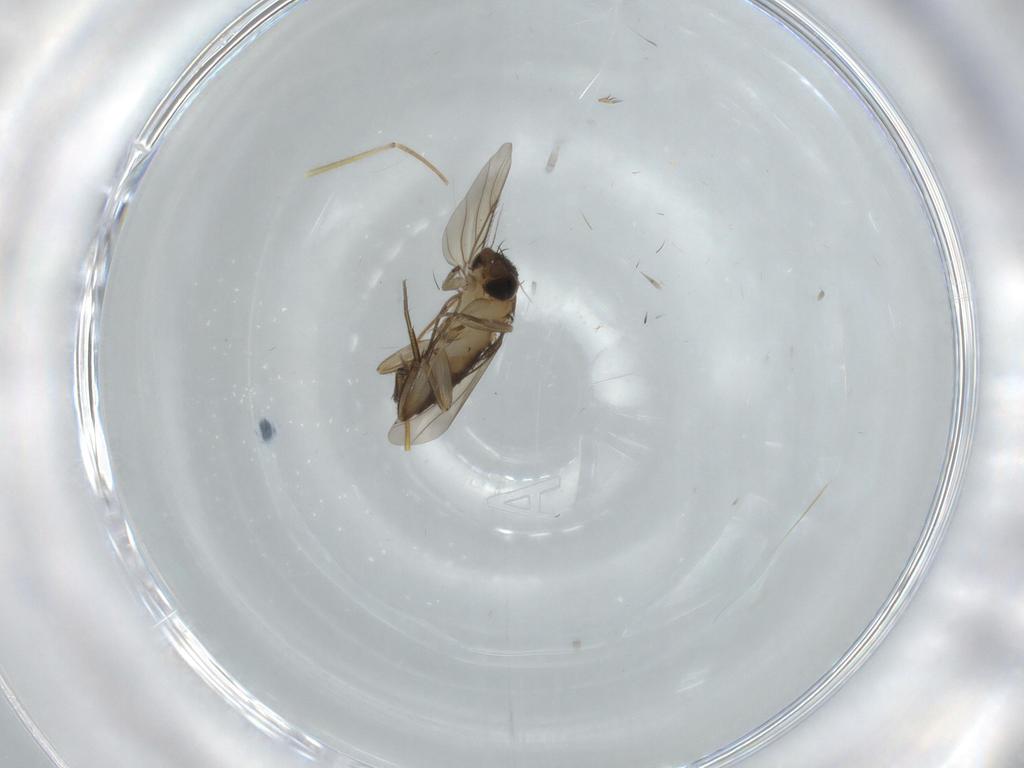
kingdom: Animalia
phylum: Arthropoda
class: Insecta
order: Diptera
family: Phoridae
